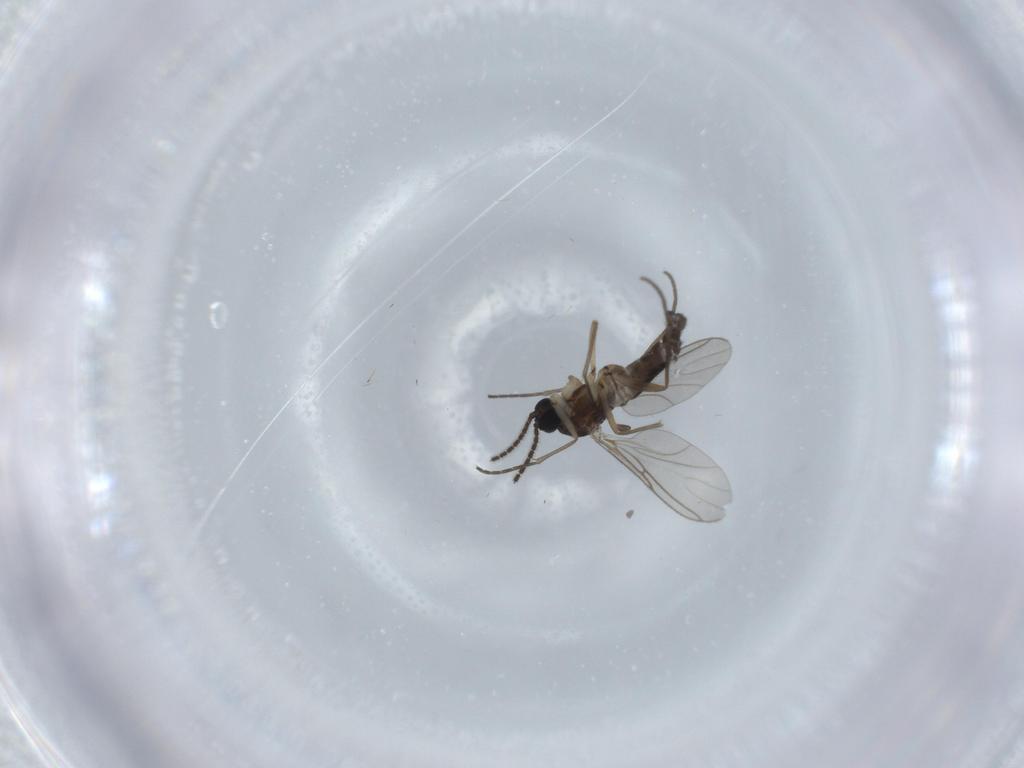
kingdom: Animalia
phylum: Arthropoda
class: Insecta
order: Diptera
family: Sciaridae
